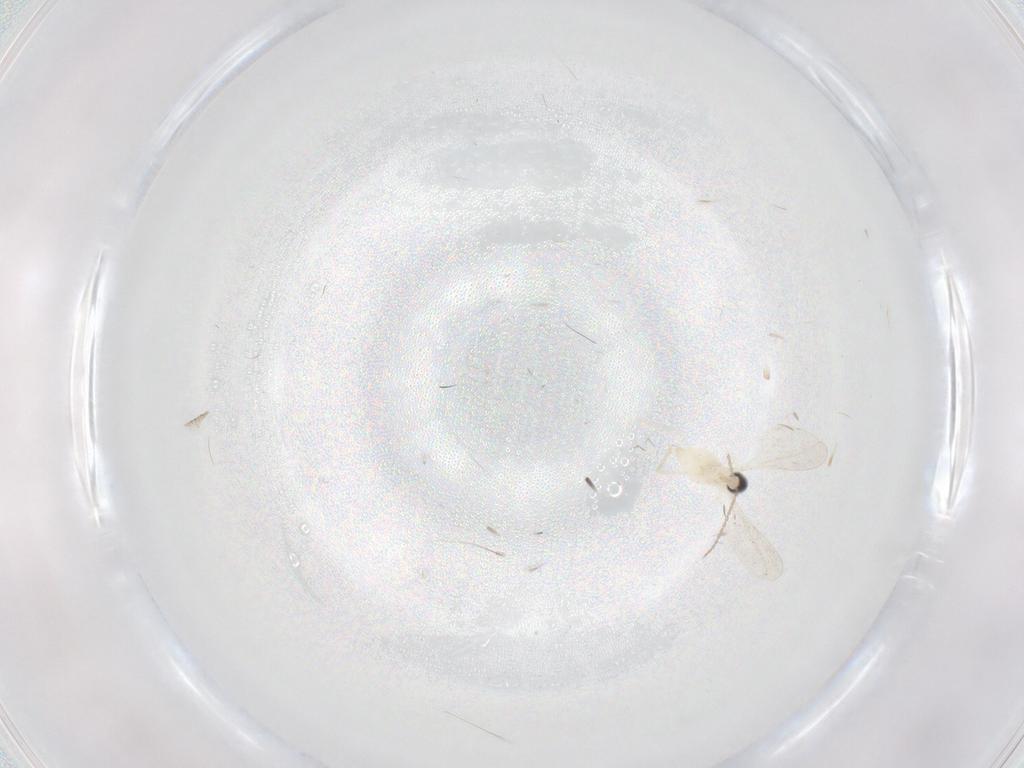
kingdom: Animalia
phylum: Arthropoda
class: Insecta
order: Diptera
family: Cecidomyiidae
